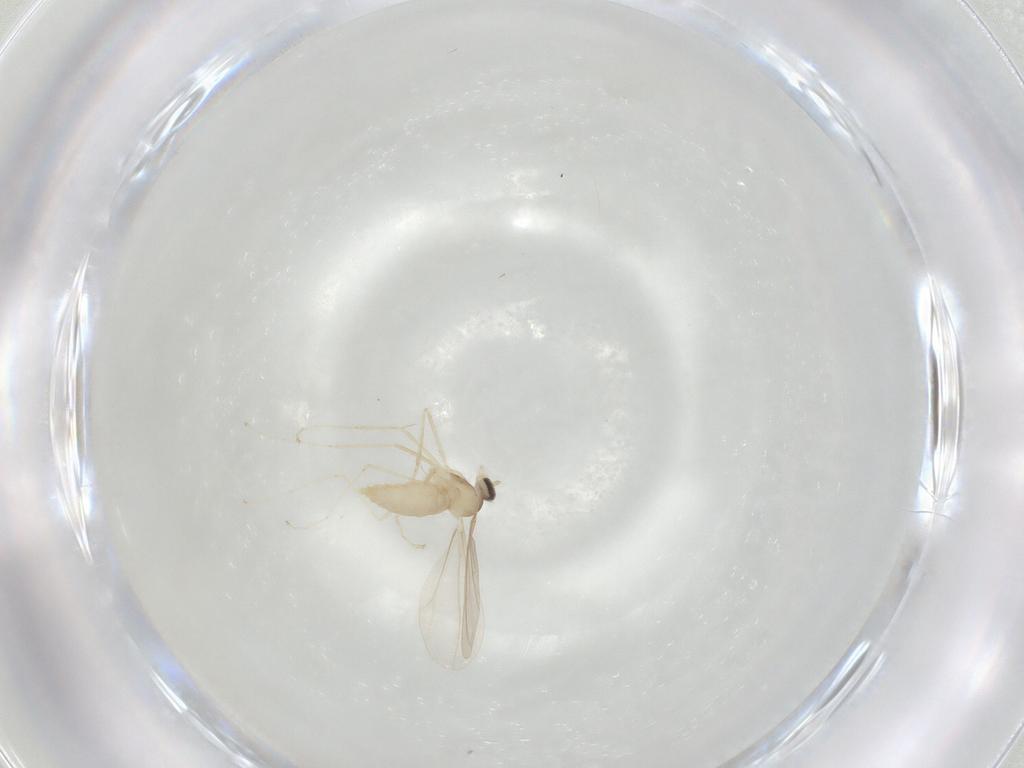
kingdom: Animalia
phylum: Arthropoda
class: Insecta
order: Diptera
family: Cecidomyiidae
